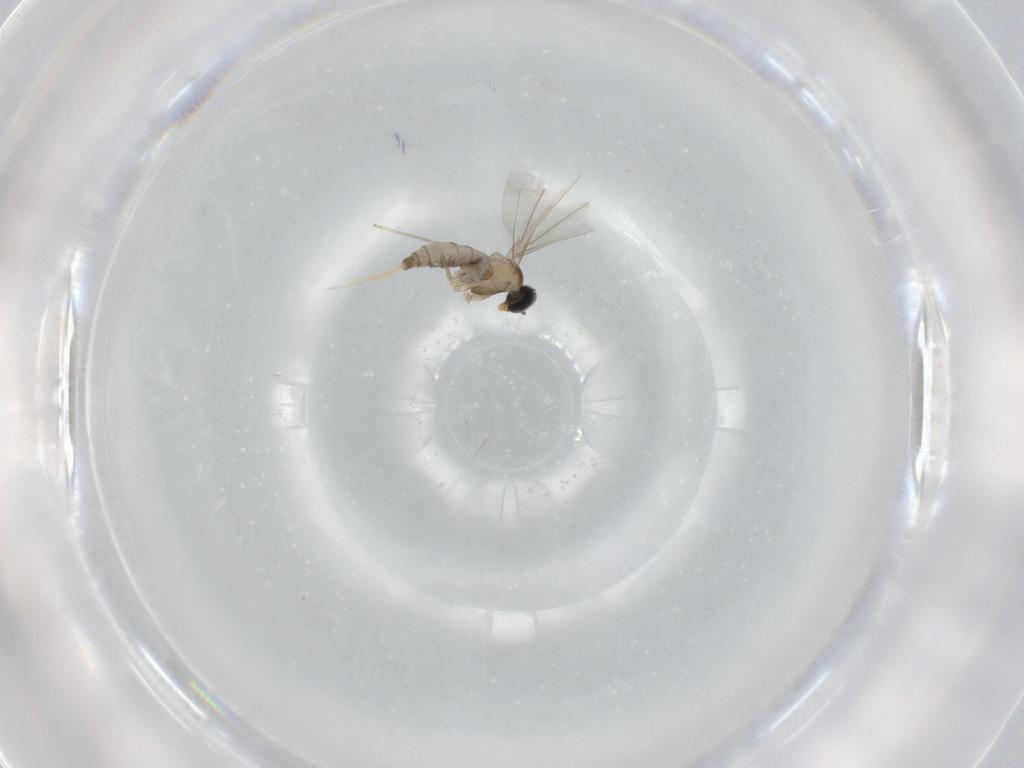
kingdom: Animalia
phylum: Arthropoda
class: Insecta
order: Diptera
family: Cecidomyiidae
